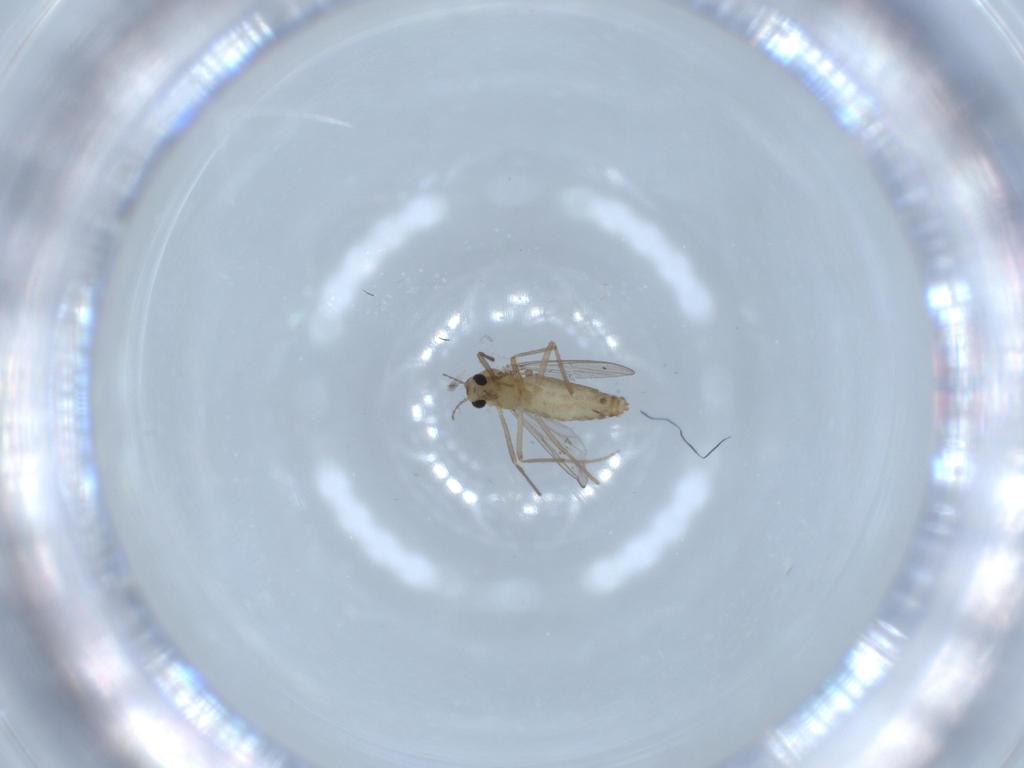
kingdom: Animalia
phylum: Arthropoda
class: Insecta
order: Diptera
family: Chironomidae
